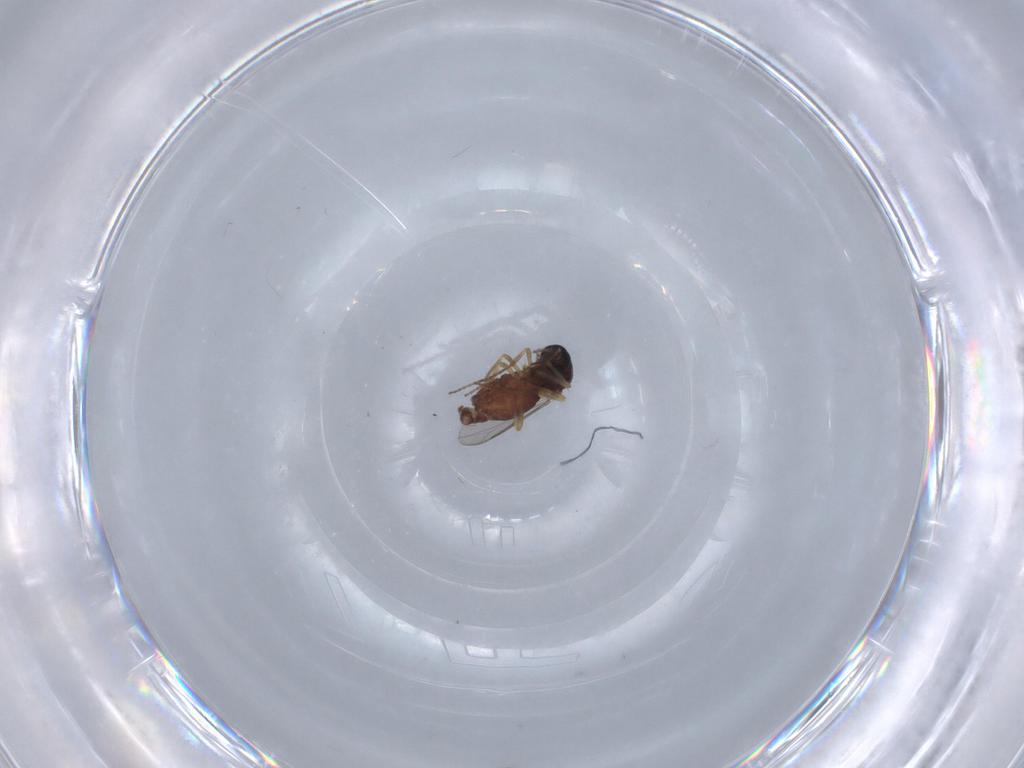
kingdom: Animalia
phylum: Arthropoda
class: Insecta
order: Diptera
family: Ceratopogonidae
